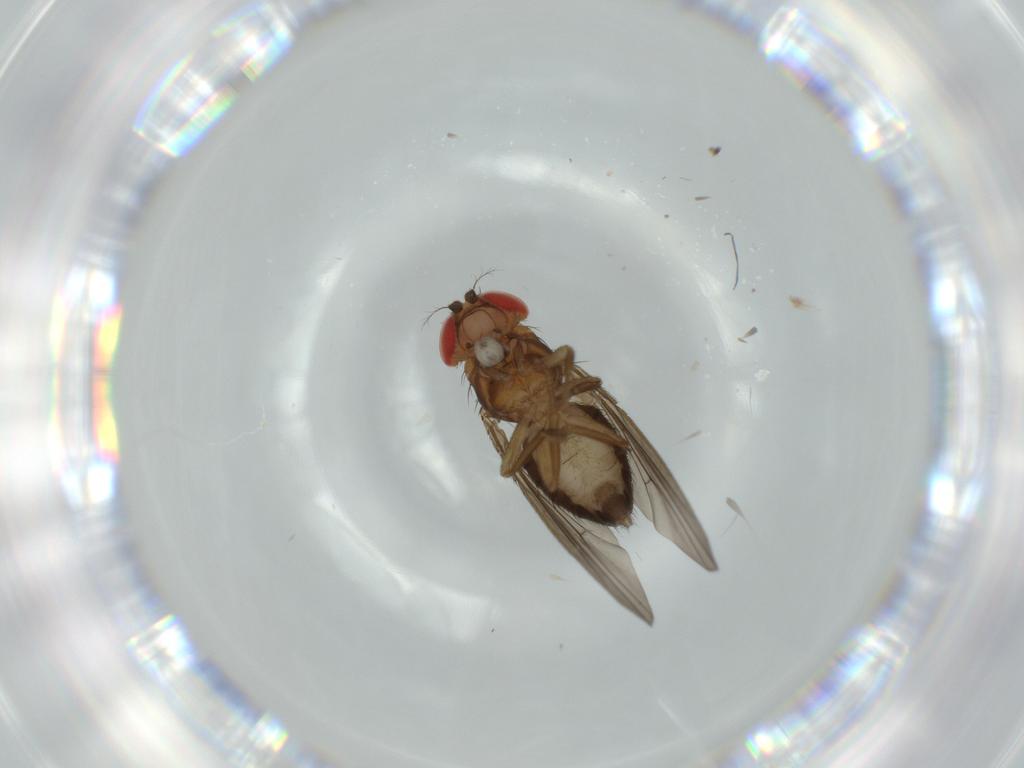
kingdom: Animalia
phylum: Arthropoda
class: Insecta
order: Diptera
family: Drosophilidae
